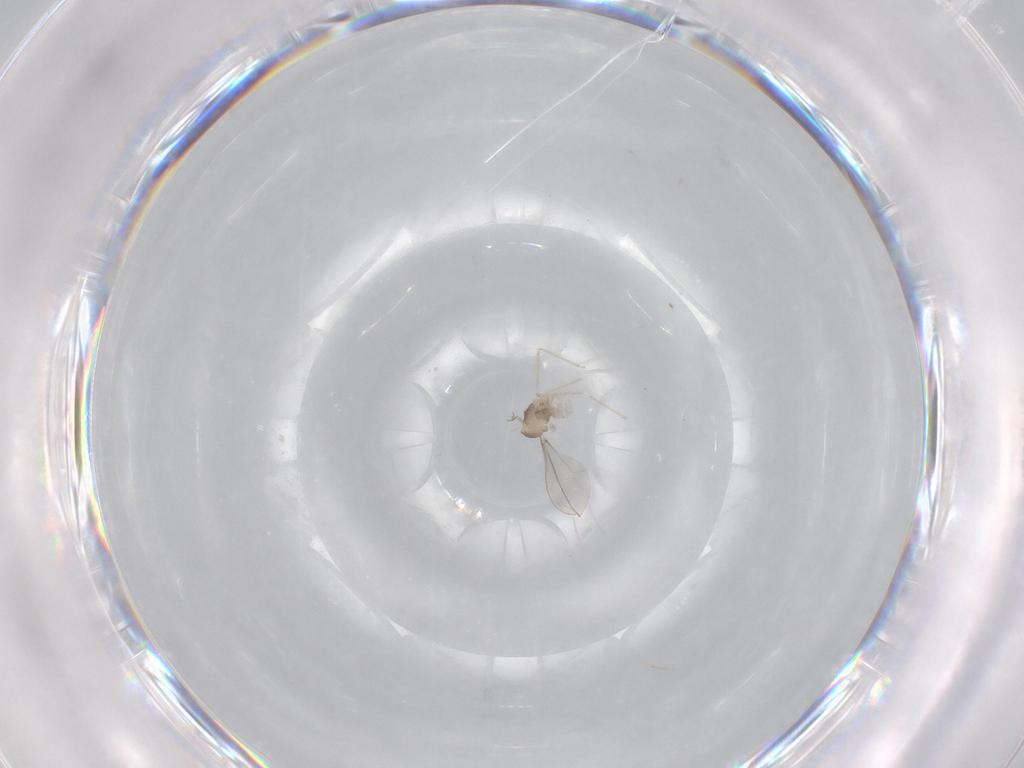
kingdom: Animalia
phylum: Arthropoda
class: Insecta
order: Diptera
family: Cecidomyiidae
